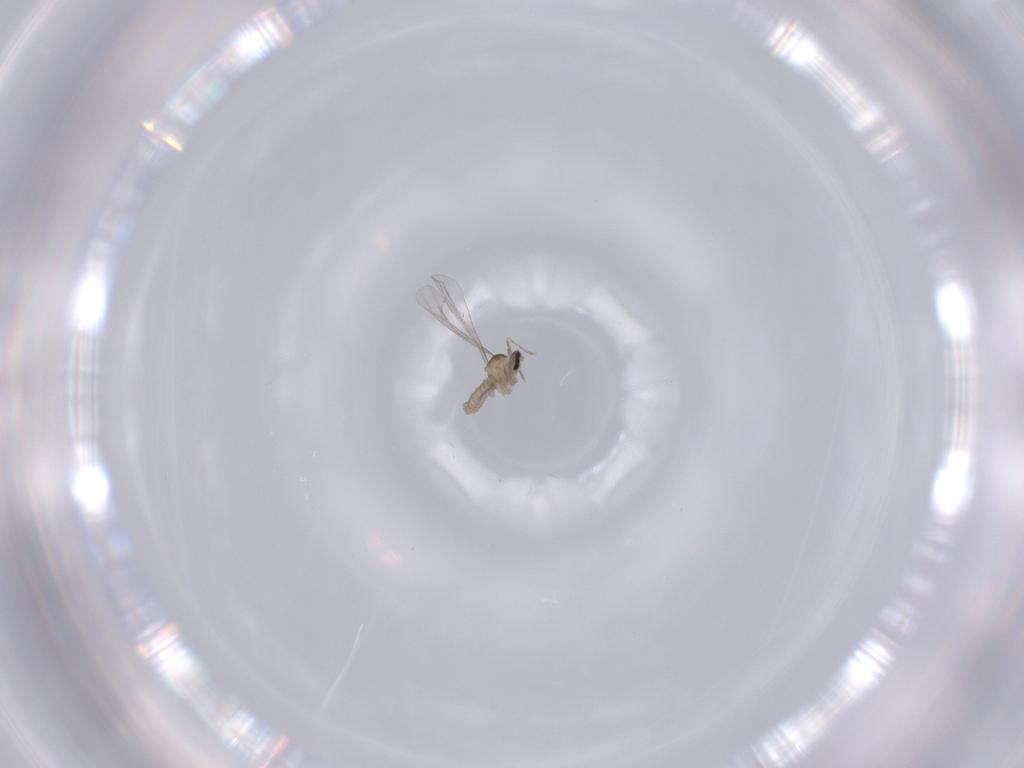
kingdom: Animalia
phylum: Arthropoda
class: Insecta
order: Diptera
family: Cecidomyiidae
